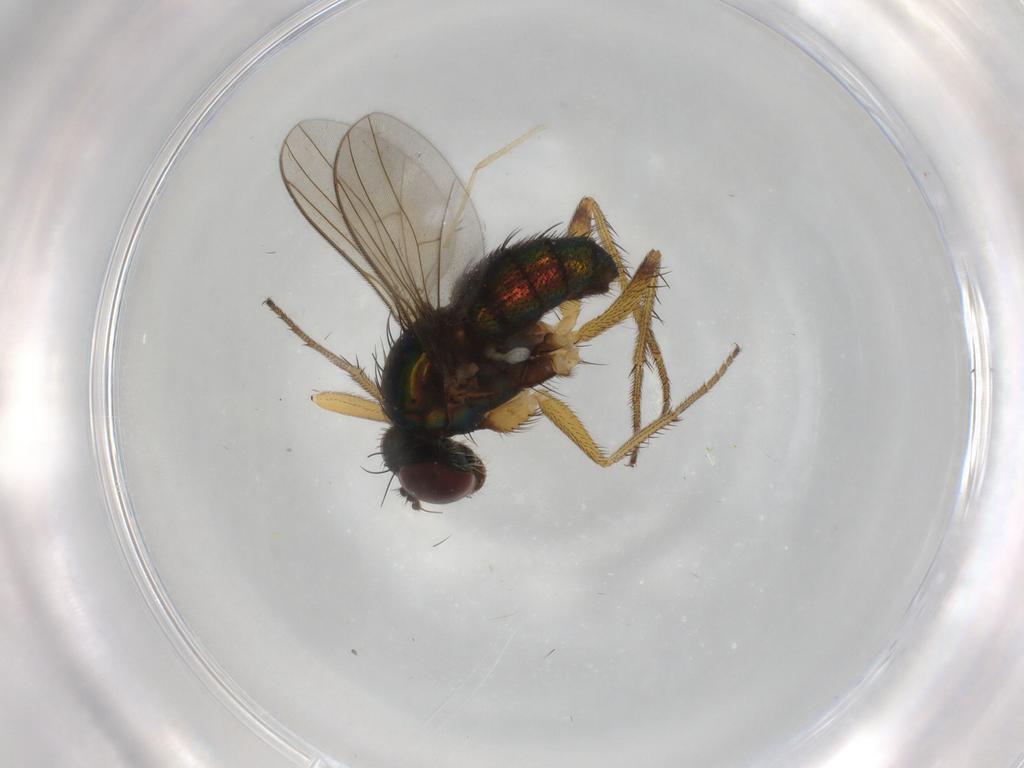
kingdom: Animalia
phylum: Arthropoda
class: Insecta
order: Diptera
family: Dolichopodidae
